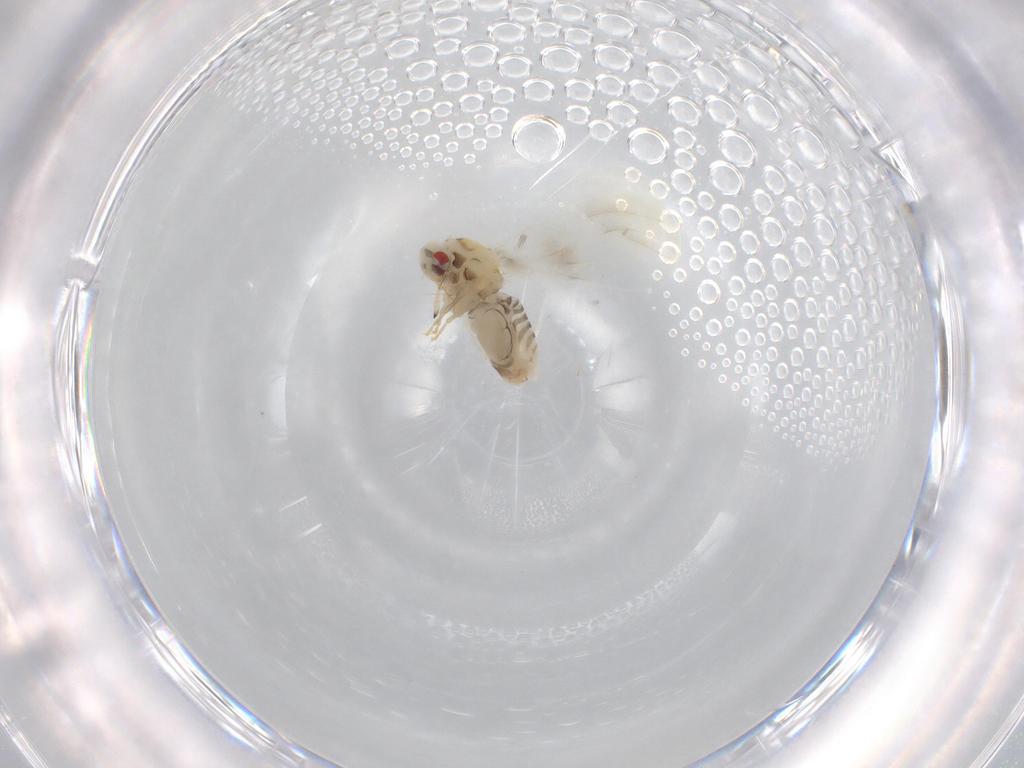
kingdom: Animalia
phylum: Arthropoda
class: Insecta
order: Hemiptera
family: Aleyrodidae
